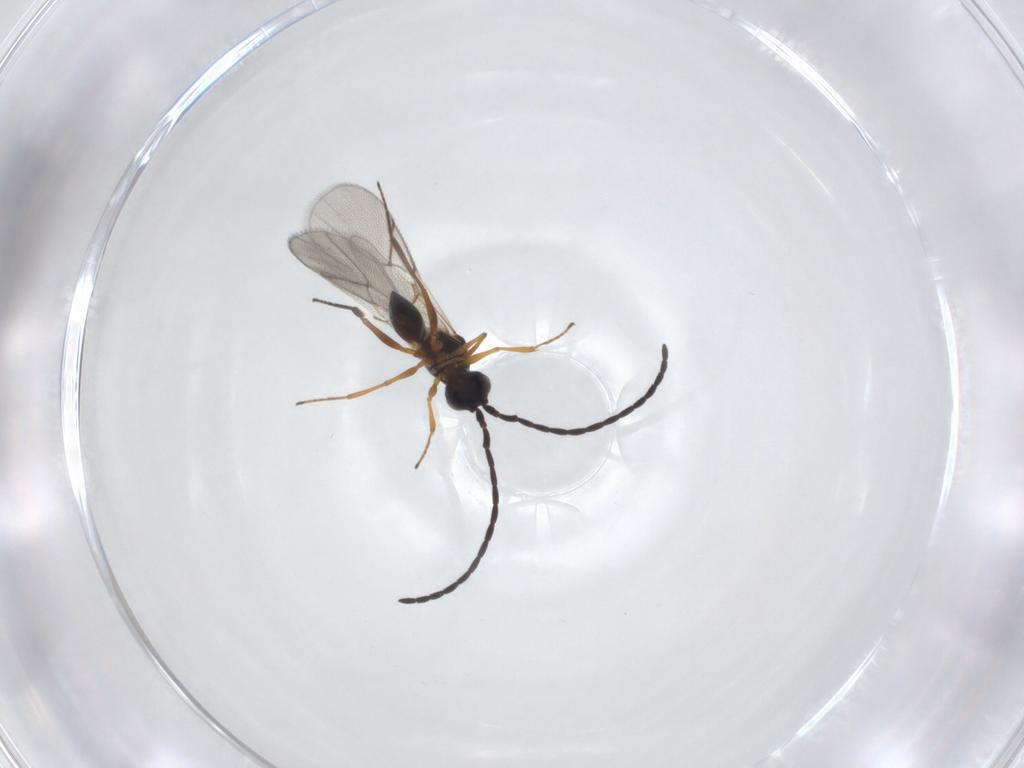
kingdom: Animalia
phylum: Arthropoda
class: Insecta
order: Hymenoptera
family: Figitidae
